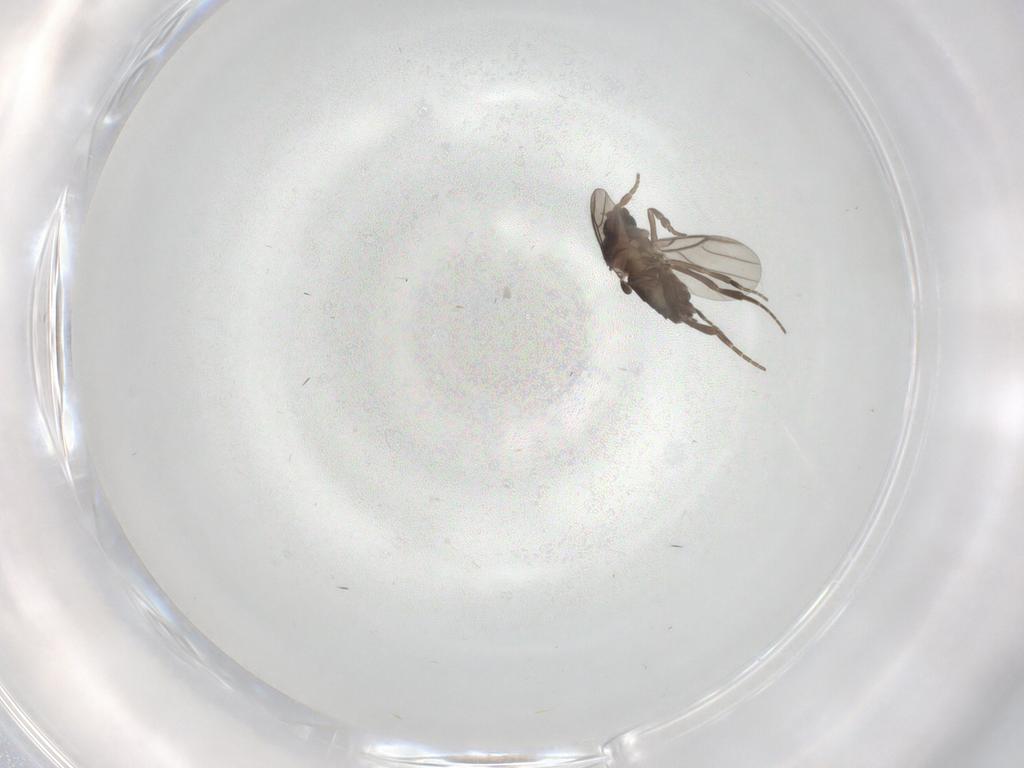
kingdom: Animalia
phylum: Arthropoda
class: Insecta
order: Diptera
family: Phoridae
